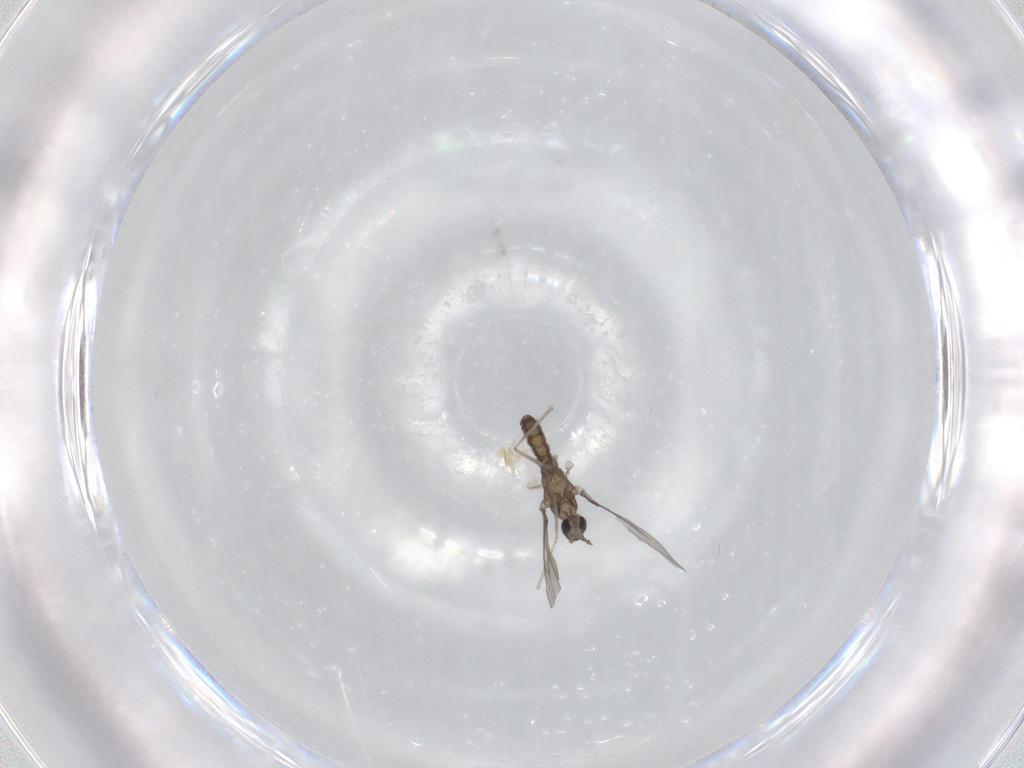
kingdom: Animalia
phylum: Arthropoda
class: Insecta
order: Diptera
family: Cecidomyiidae
